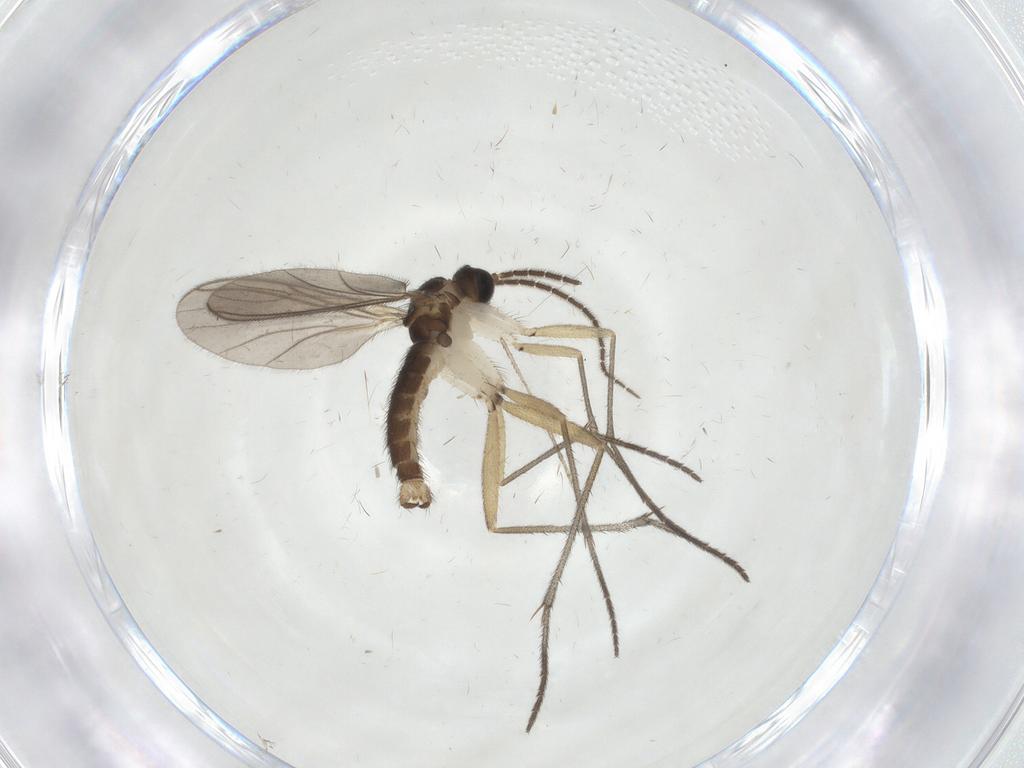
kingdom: Animalia
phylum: Arthropoda
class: Insecta
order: Diptera
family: Sciaridae
